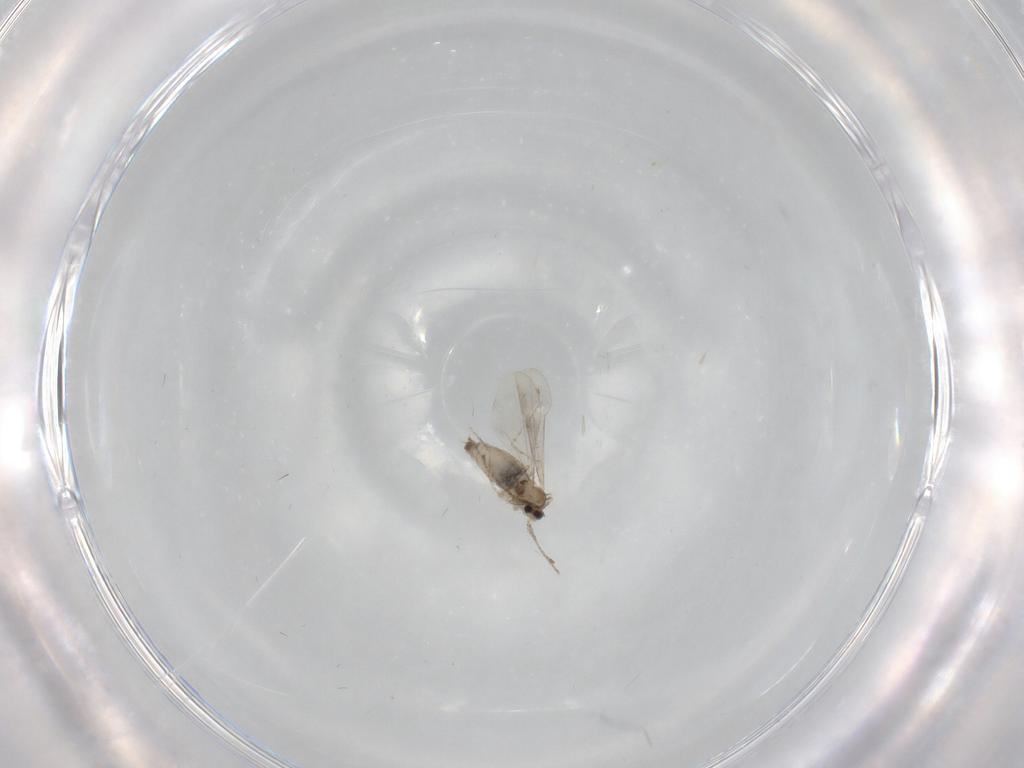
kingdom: Animalia
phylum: Arthropoda
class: Insecta
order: Diptera
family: Cecidomyiidae
